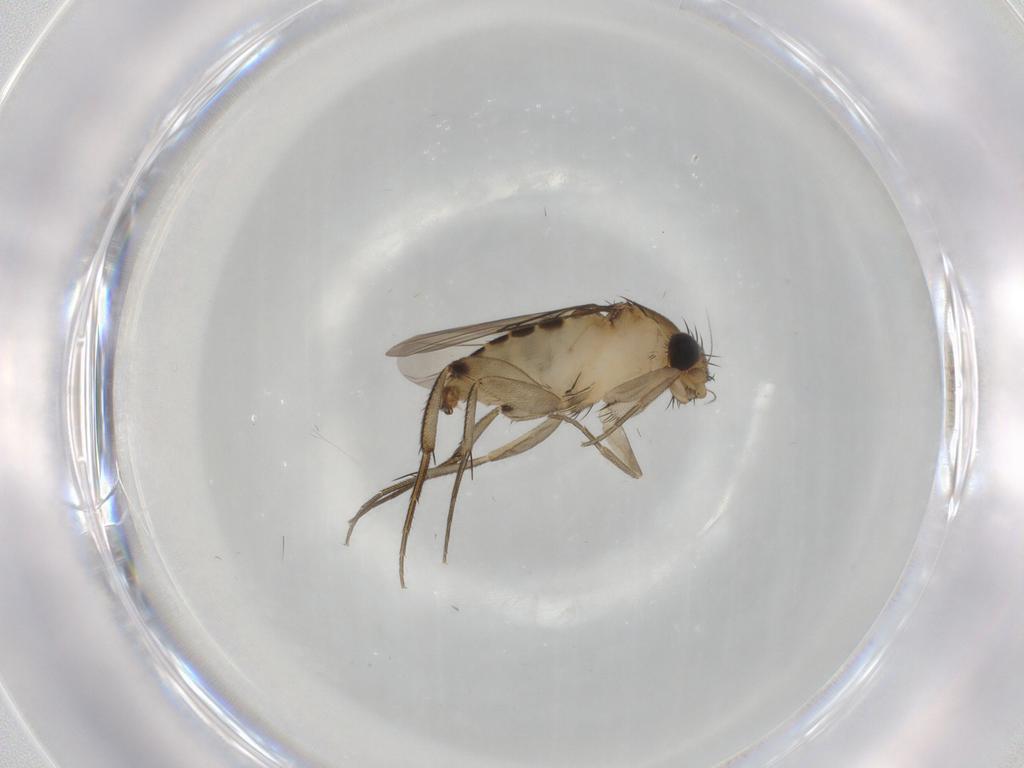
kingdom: Animalia
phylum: Arthropoda
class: Insecta
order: Diptera
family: Phoridae
